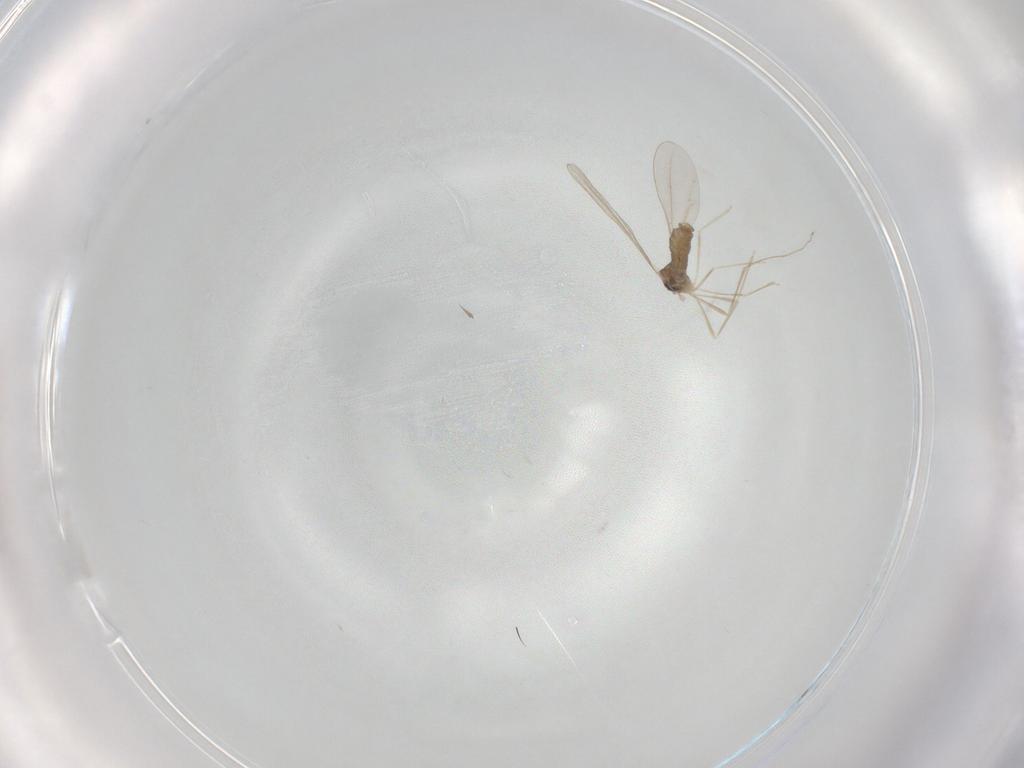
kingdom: Animalia
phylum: Arthropoda
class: Insecta
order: Diptera
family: Cecidomyiidae
